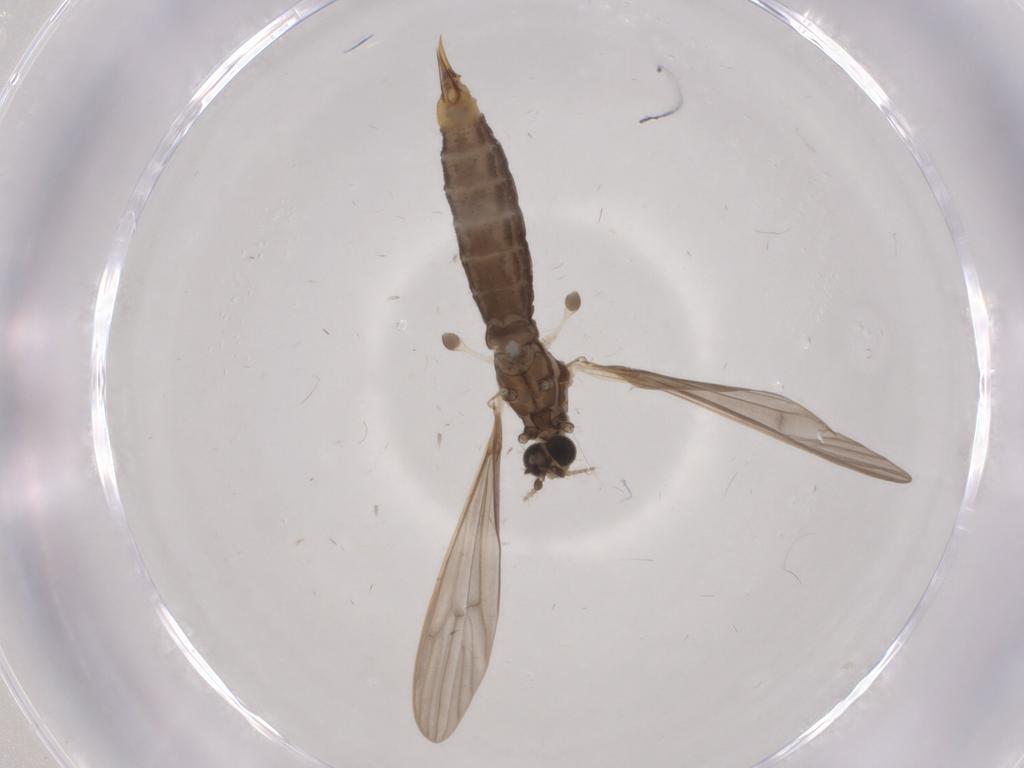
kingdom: Animalia
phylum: Arthropoda
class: Insecta
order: Diptera
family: Limoniidae
